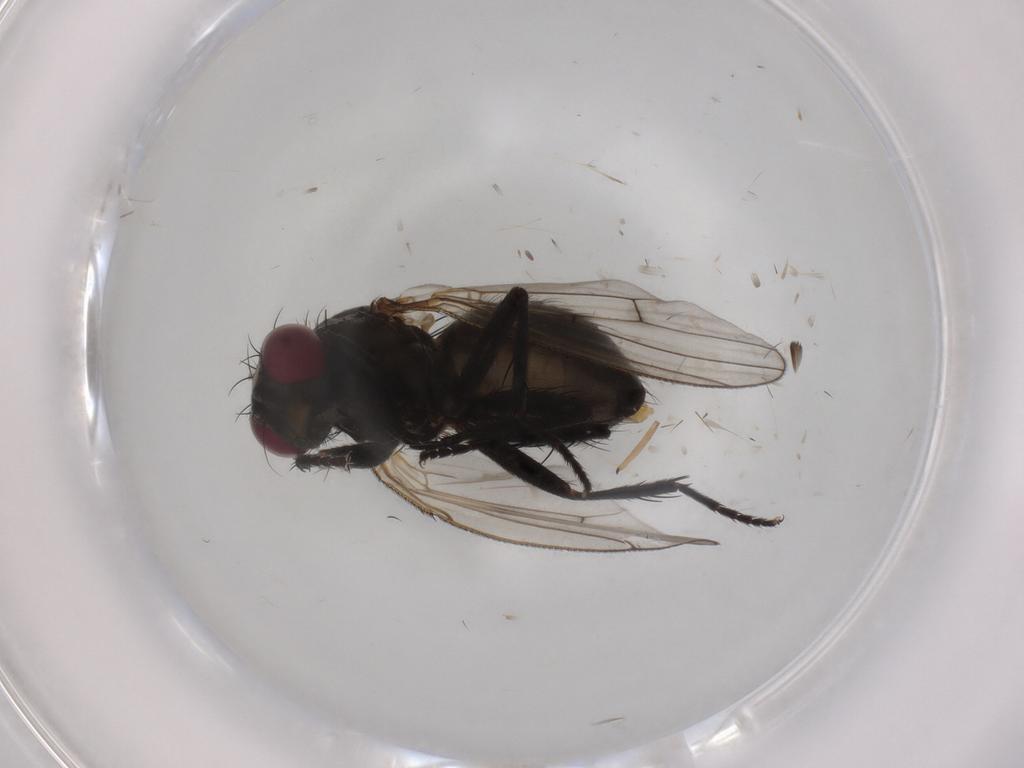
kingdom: Animalia
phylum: Arthropoda
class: Insecta
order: Diptera
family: Chironomidae
